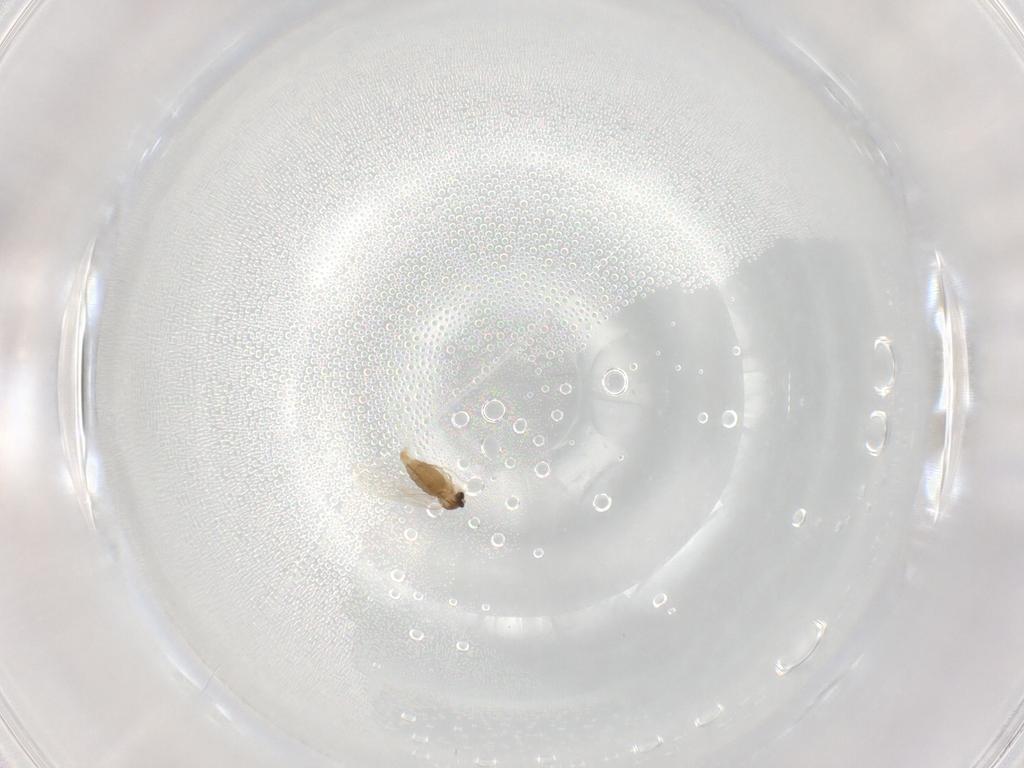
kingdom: Animalia
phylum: Arthropoda
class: Insecta
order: Diptera
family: Cecidomyiidae
